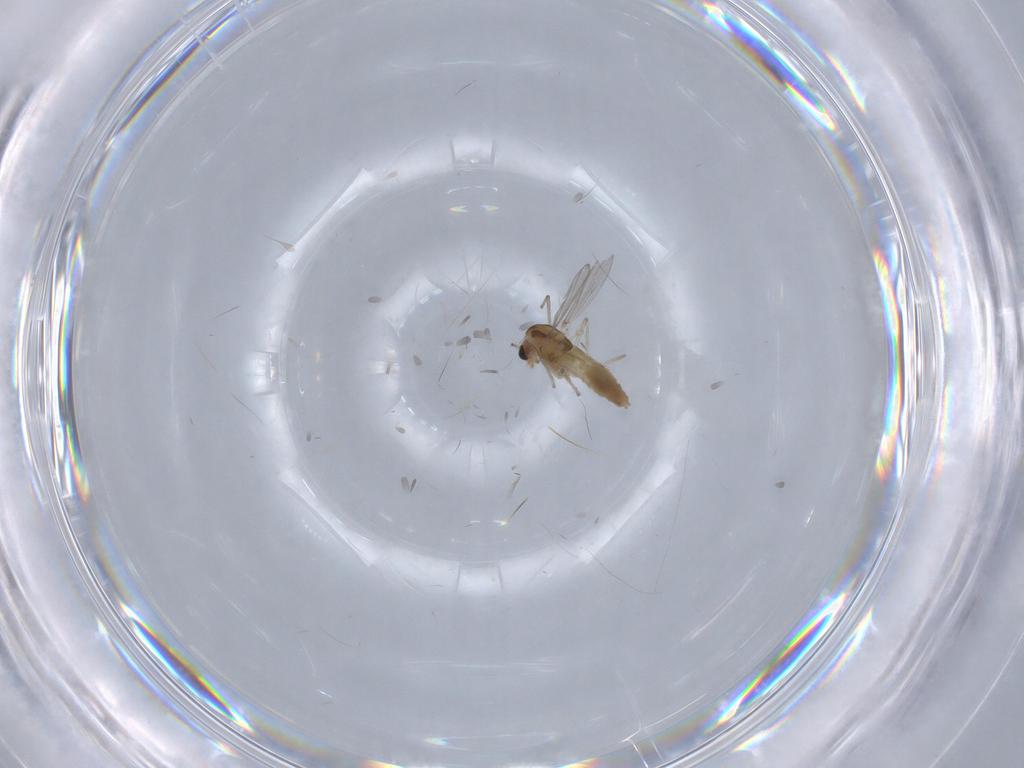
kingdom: Animalia
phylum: Arthropoda
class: Insecta
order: Diptera
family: Chironomidae
